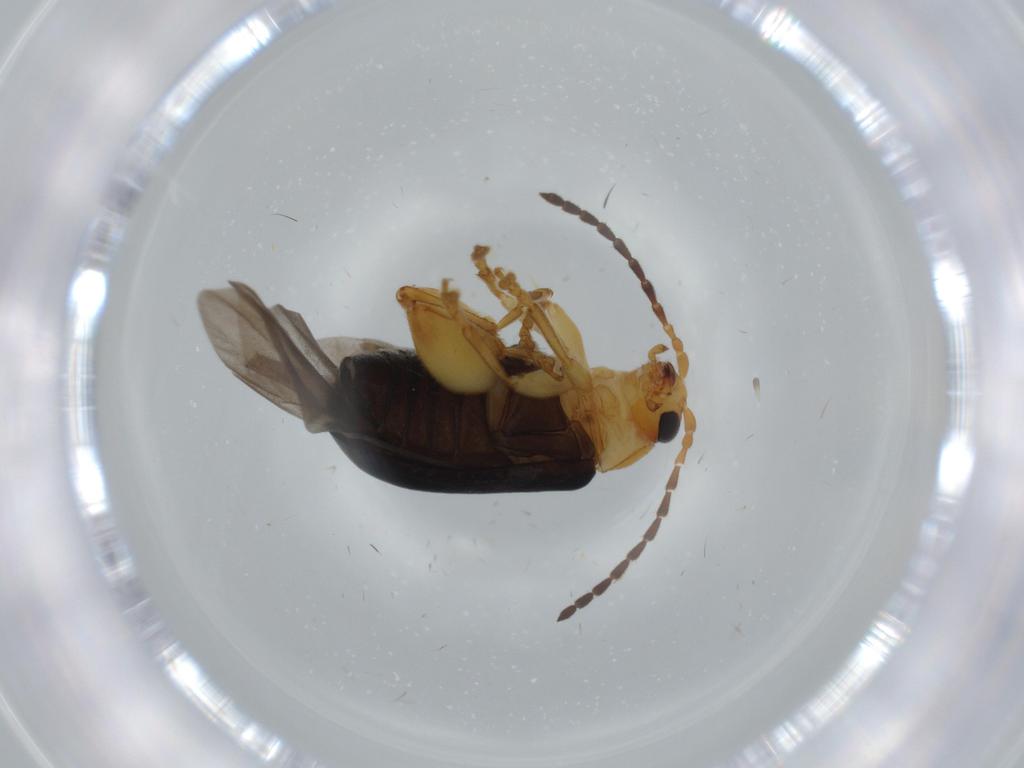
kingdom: Animalia
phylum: Arthropoda
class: Insecta
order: Coleoptera
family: Chrysomelidae
